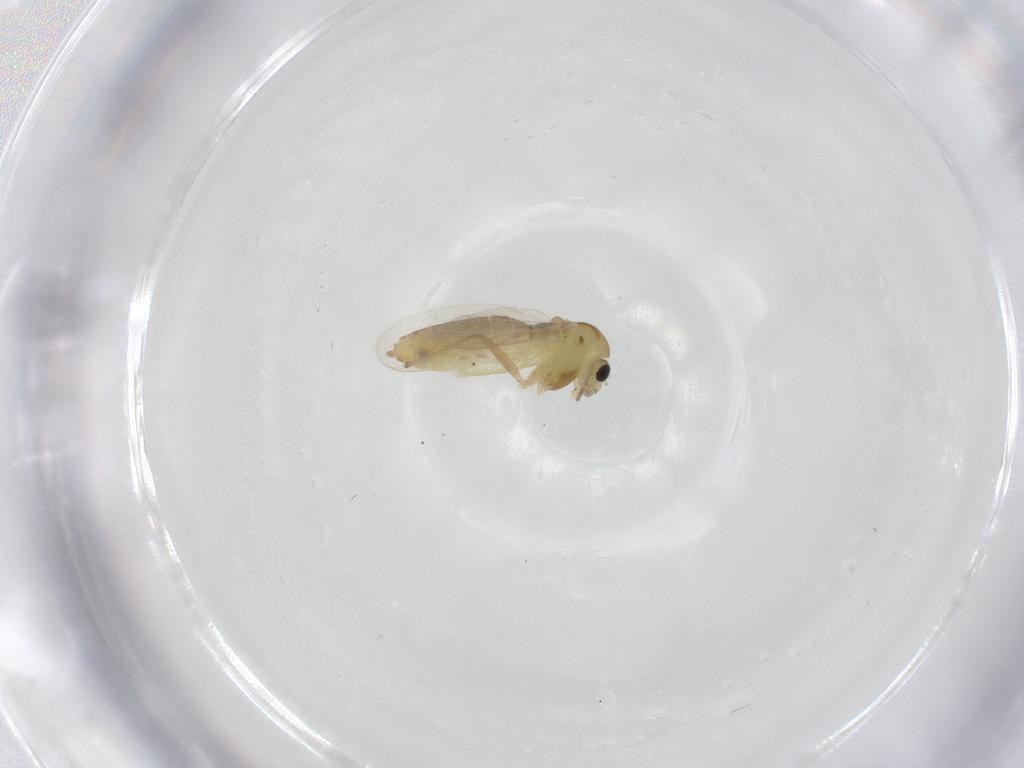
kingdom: Animalia
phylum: Arthropoda
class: Insecta
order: Diptera
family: Chironomidae
